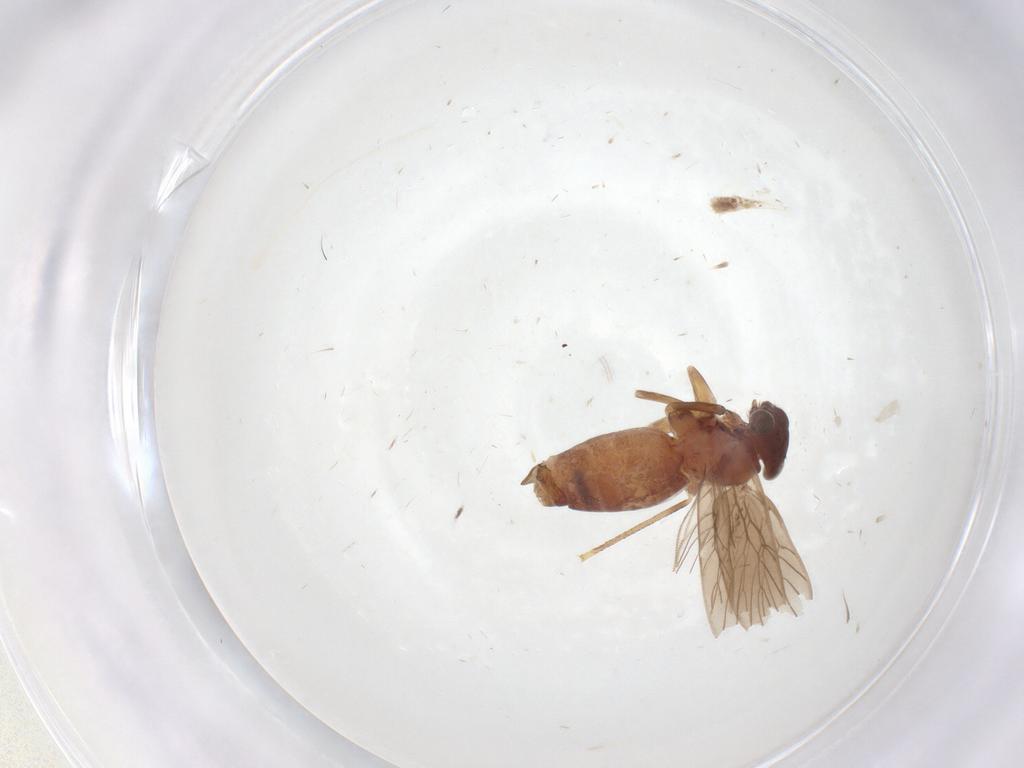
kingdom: Animalia
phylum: Arthropoda
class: Insecta
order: Psocodea
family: Lepidopsocidae
